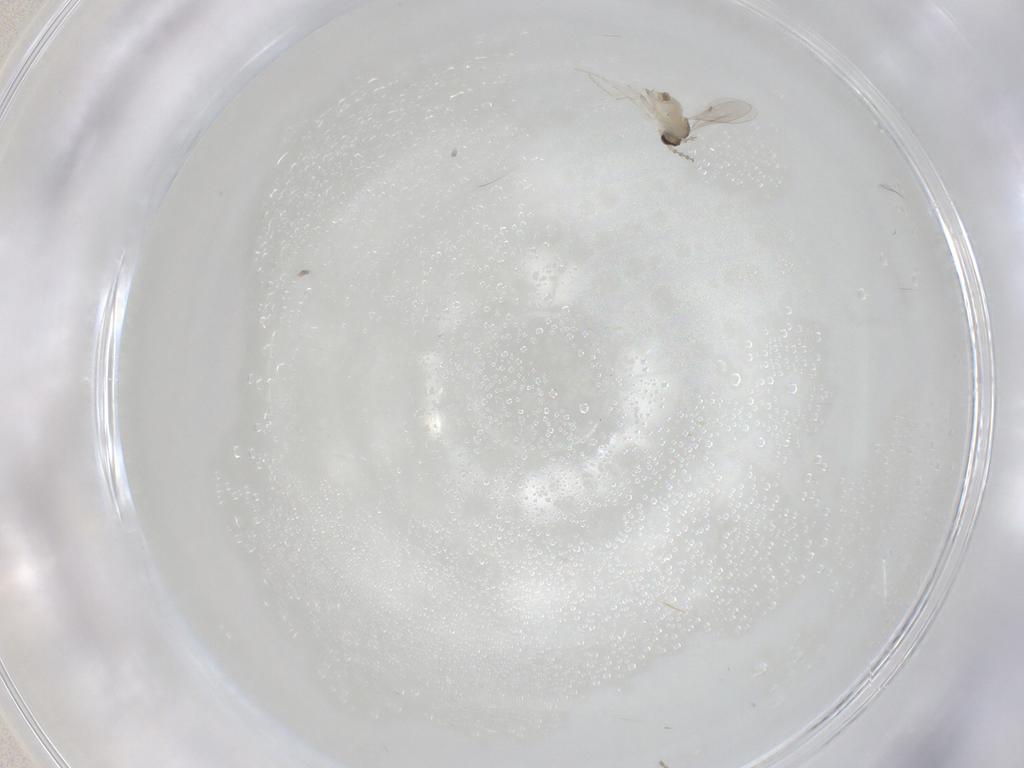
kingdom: Animalia
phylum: Arthropoda
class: Insecta
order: Diptera
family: Cecidomyiidae
